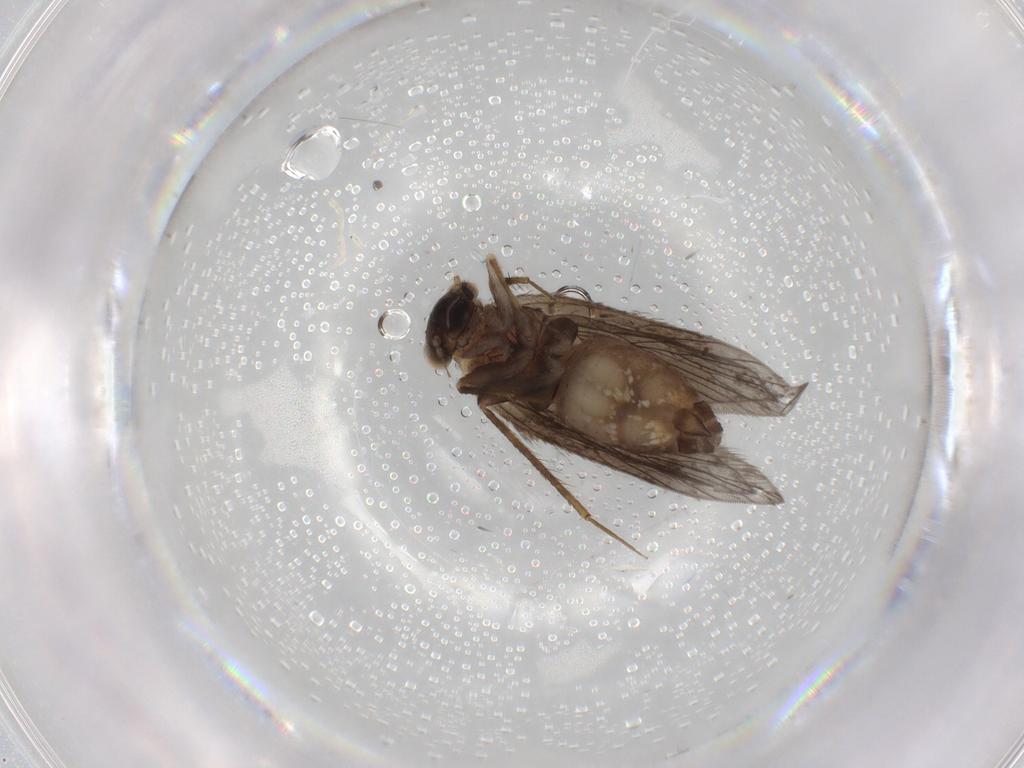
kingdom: Animalia
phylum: Arthropoda
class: Insecta
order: Psocodea
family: Lepidopsocidae
